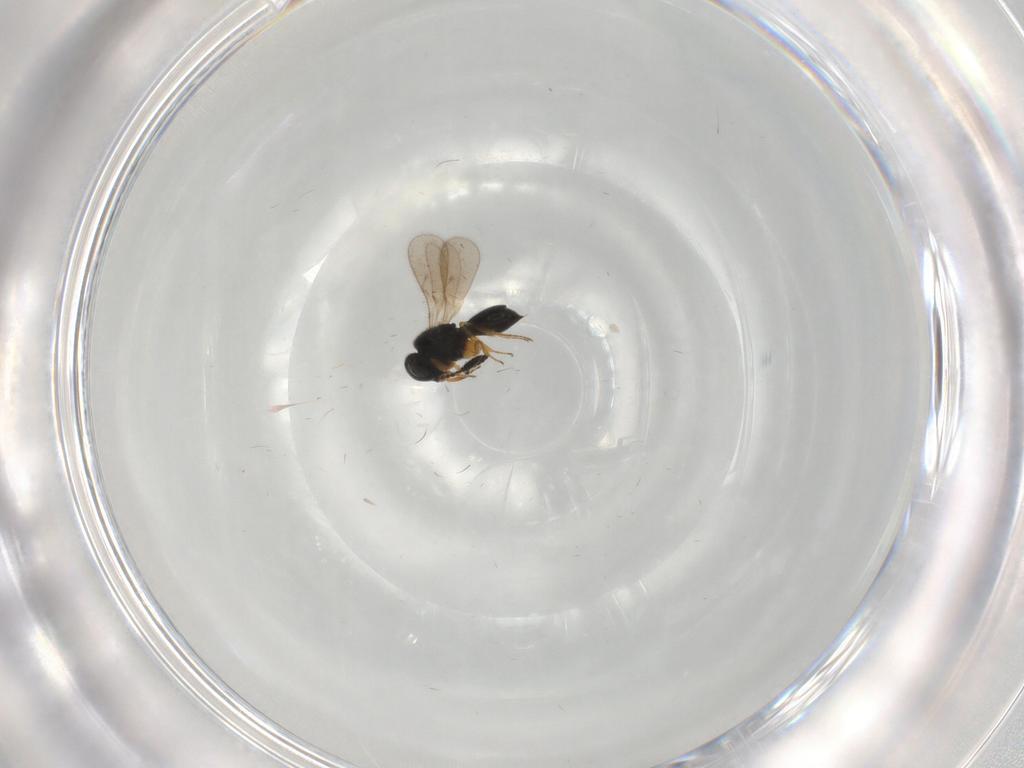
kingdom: Animalia
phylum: Arthropoda
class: Insecta
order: Hymenoptera
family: Scelionidae
